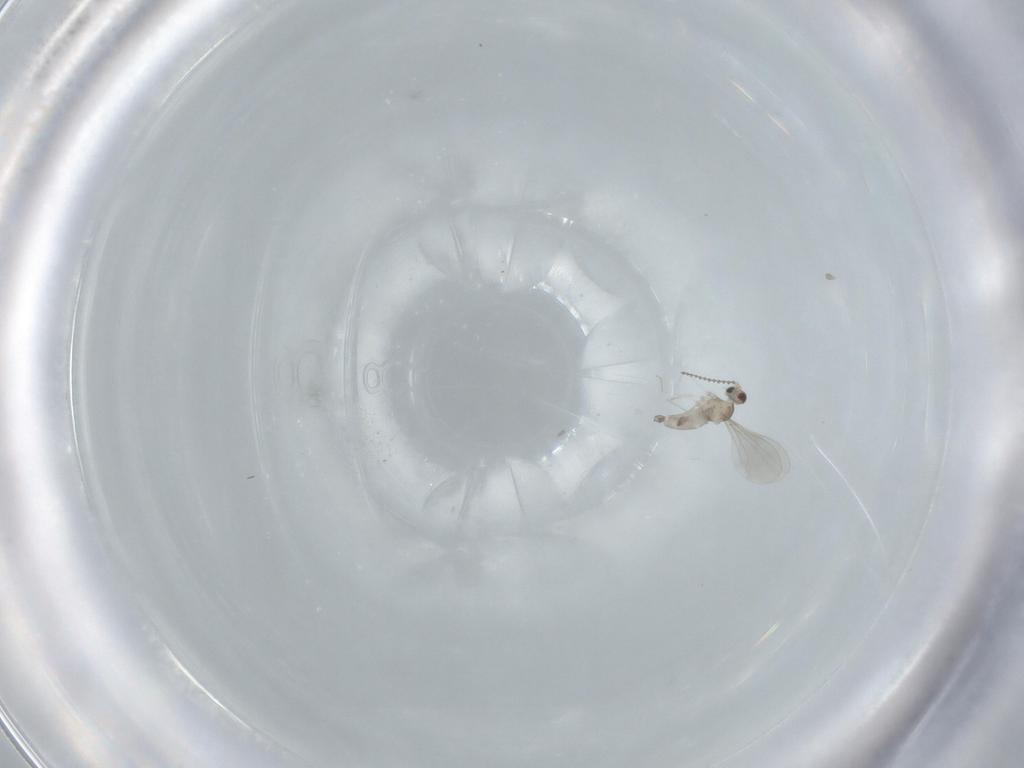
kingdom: Animalia
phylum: Arthropoda
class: Insecta
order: Diptera
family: Cecidomyiidae
